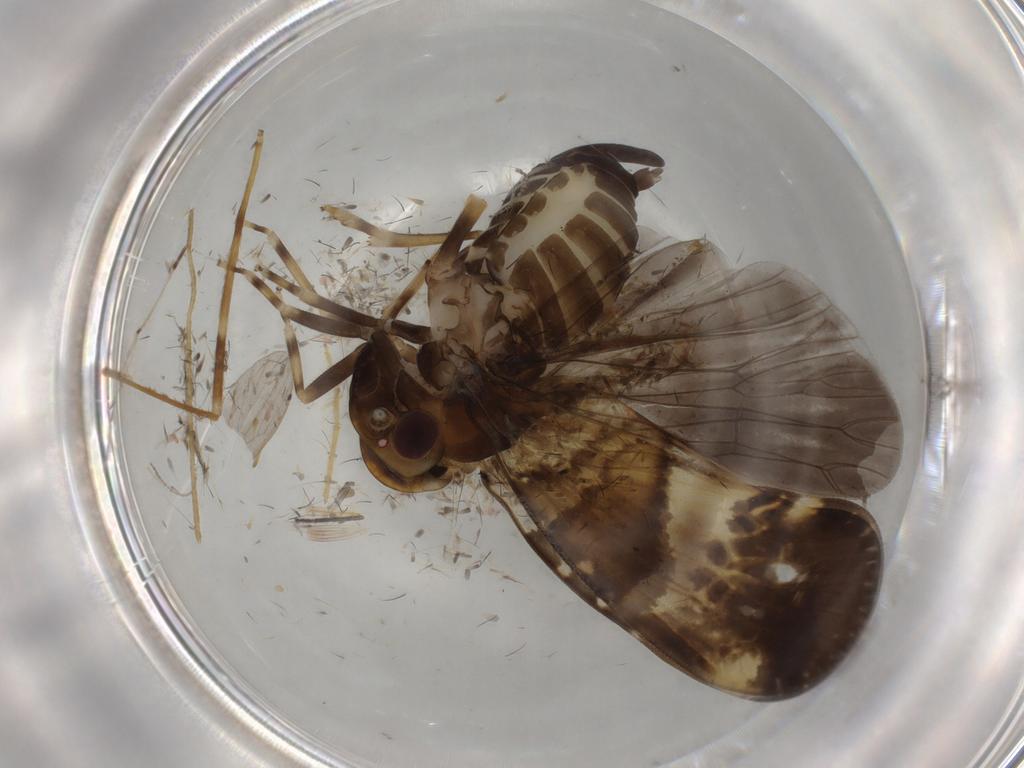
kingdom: Animalia
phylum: Arthropoda
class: Insecta
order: Hemiptera
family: Cixiidae
